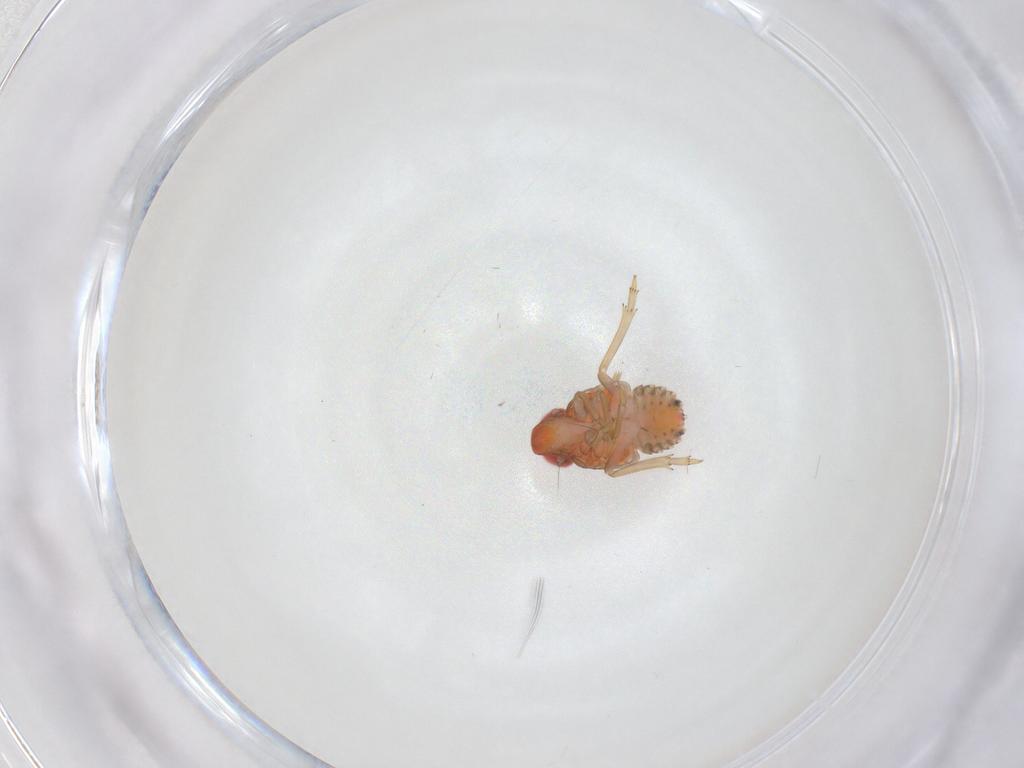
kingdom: Animalia
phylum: Arthropoda
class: Insecta
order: Hemiptera
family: Fulgoroidea_incertae_sedis
